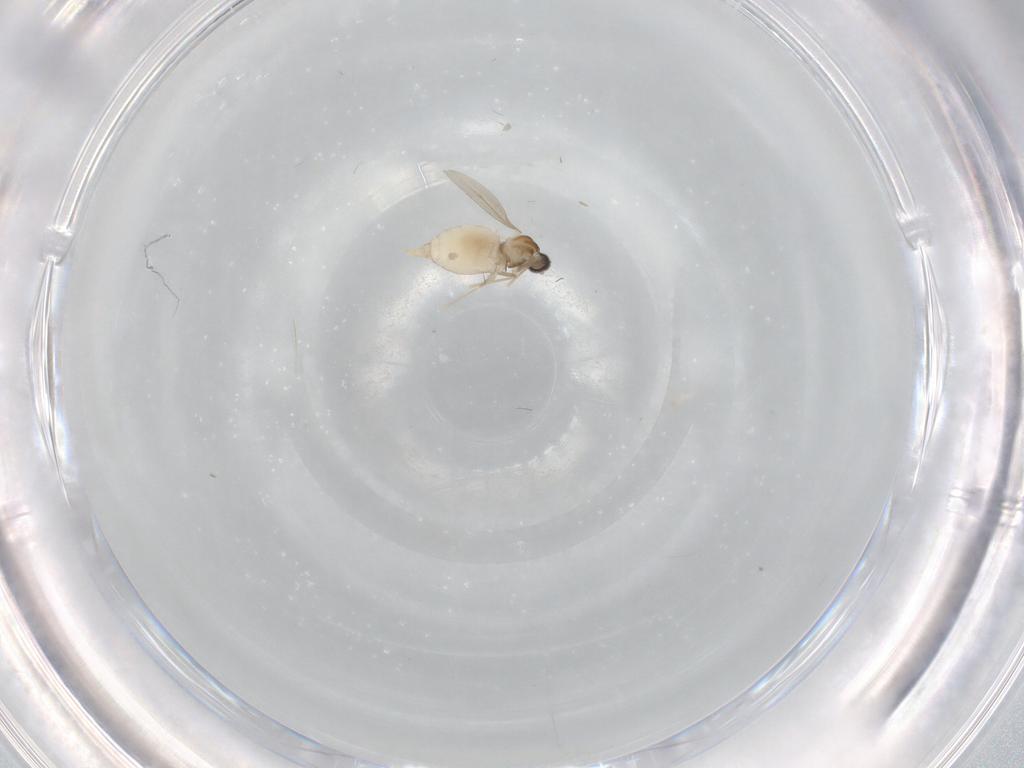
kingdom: Animalia
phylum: Arthropoda
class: Insecta
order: Diptera
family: Cecidomyiidae
